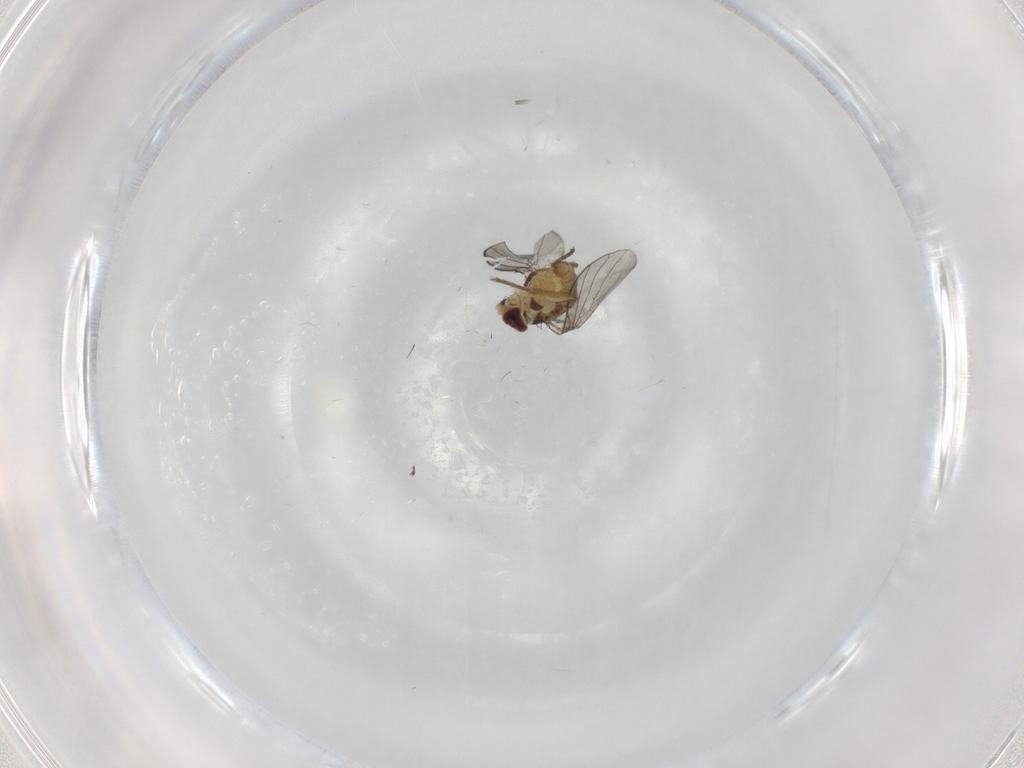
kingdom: Animalia
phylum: Arthropoda
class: Insecta
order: Diptera
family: Agromyzidae
